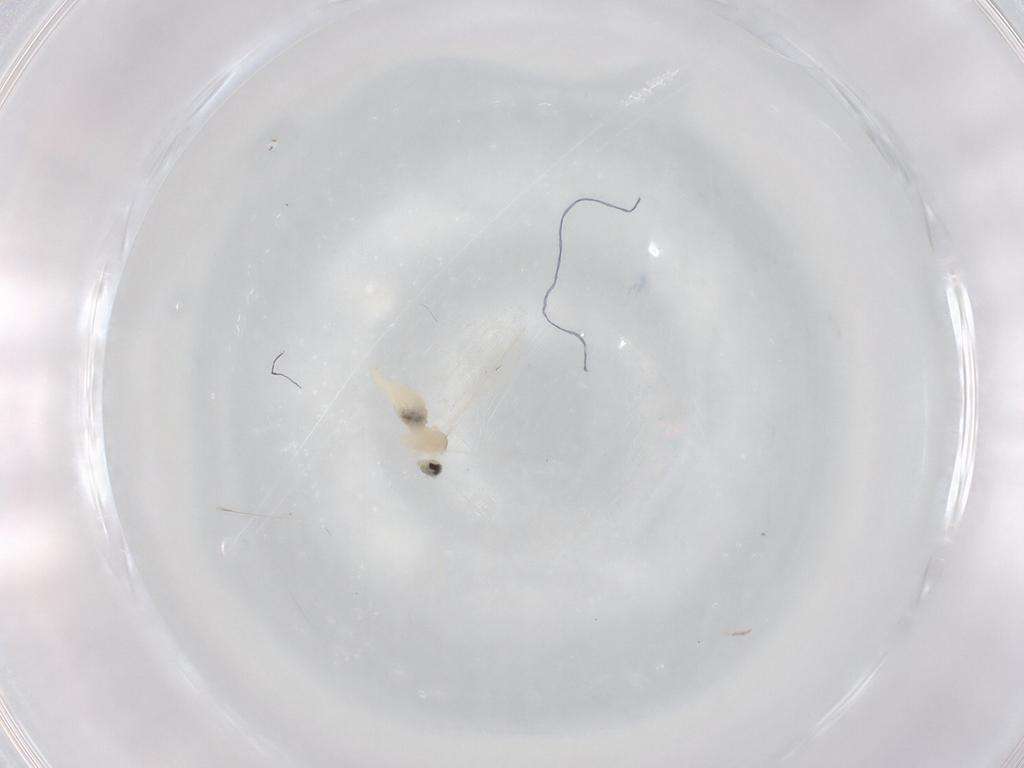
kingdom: Animalia
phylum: Arthropoda
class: Insecta
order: Diptera
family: Cecidomyiidae
